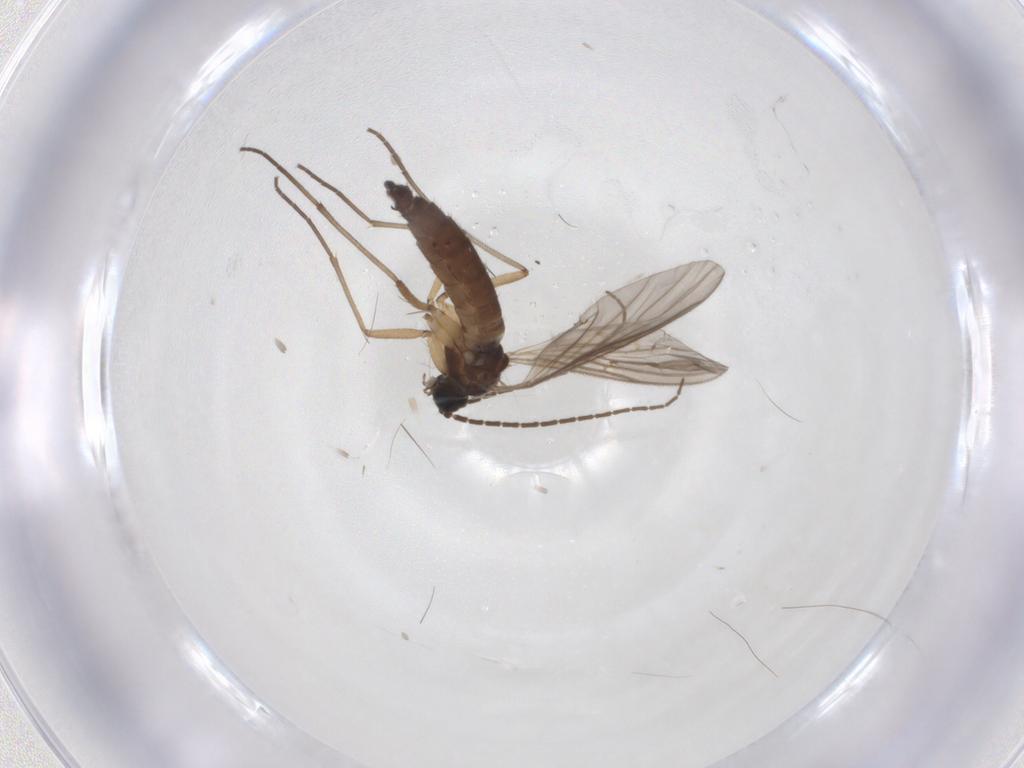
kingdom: Animalia
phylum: Arthropoda
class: Insecta
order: Diptera
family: Sciaridae
